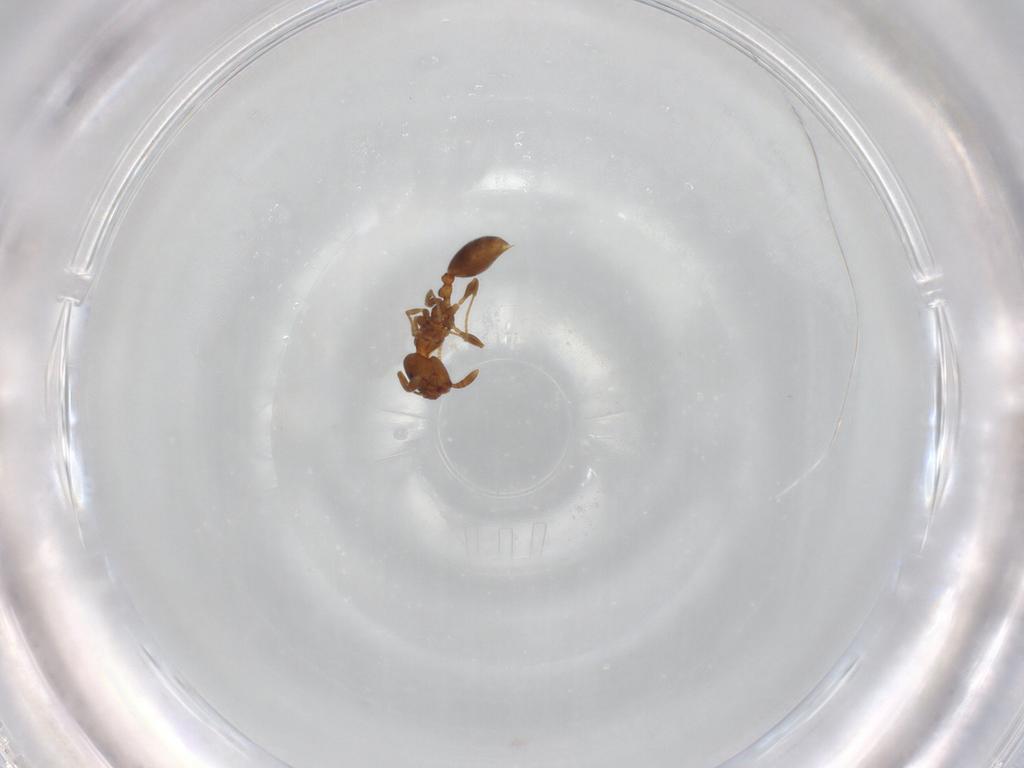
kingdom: Animalia
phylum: Arthropoda
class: Insecta
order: Hymenoptera
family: Formicidae
